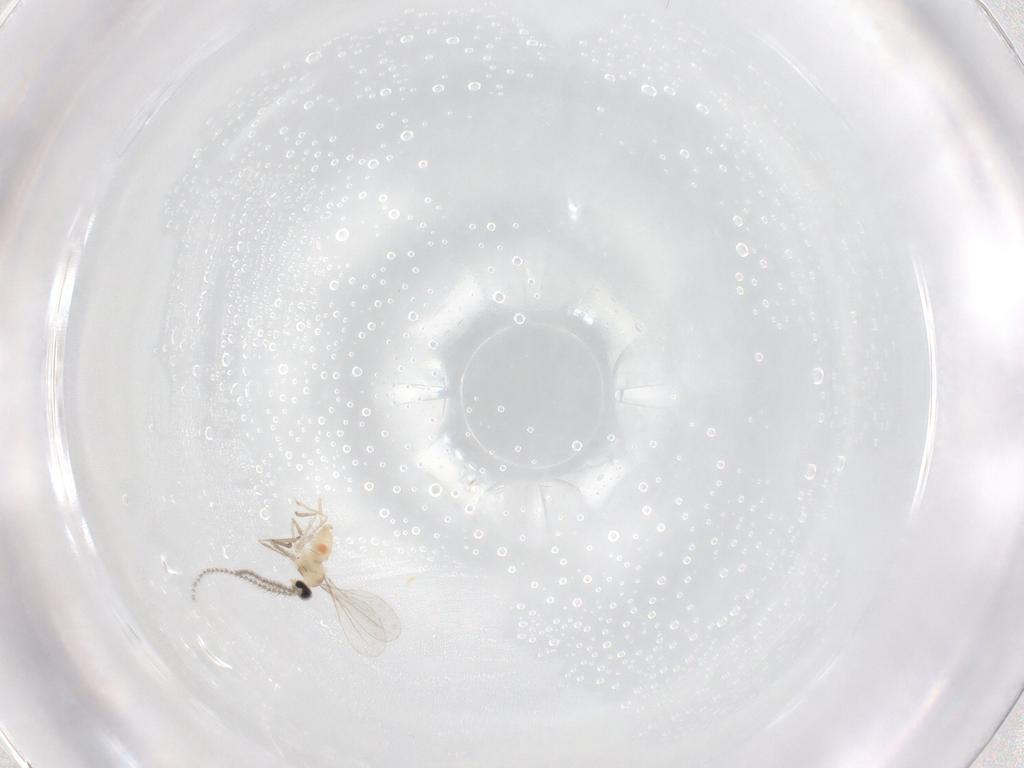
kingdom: Animalia
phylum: Arthropoda
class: Insecta
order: Diptera
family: Cecidomyiidae
